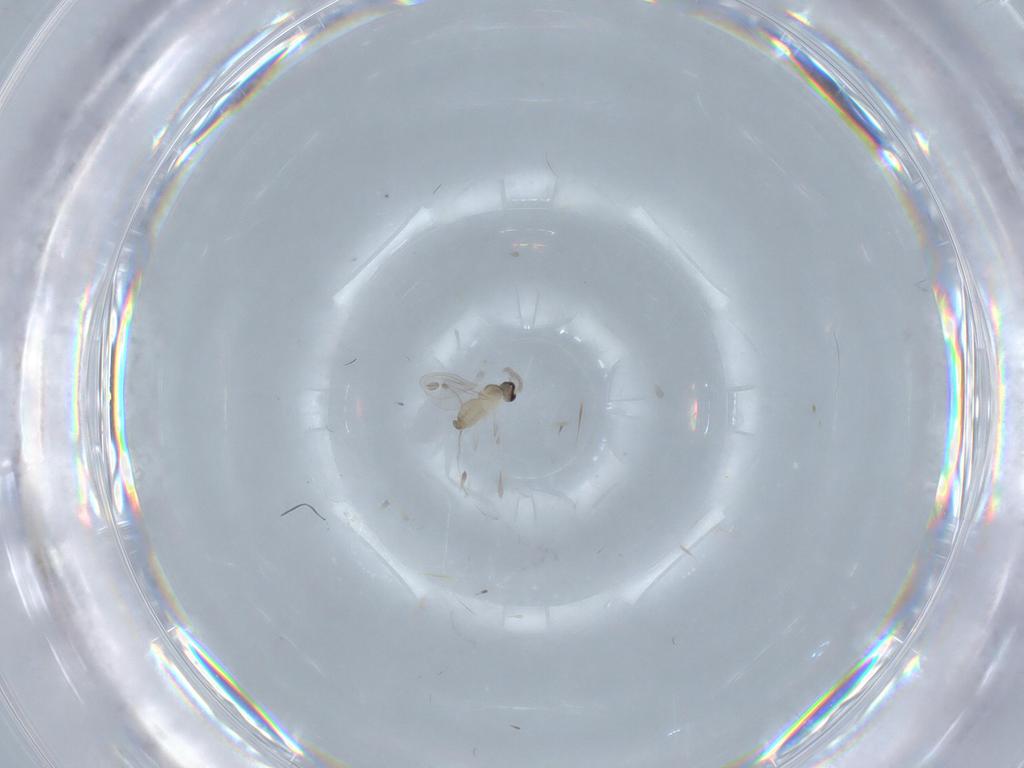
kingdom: Animalia
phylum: Arthropoda
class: Insecta
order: Diptera
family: Cecidomyiidae
